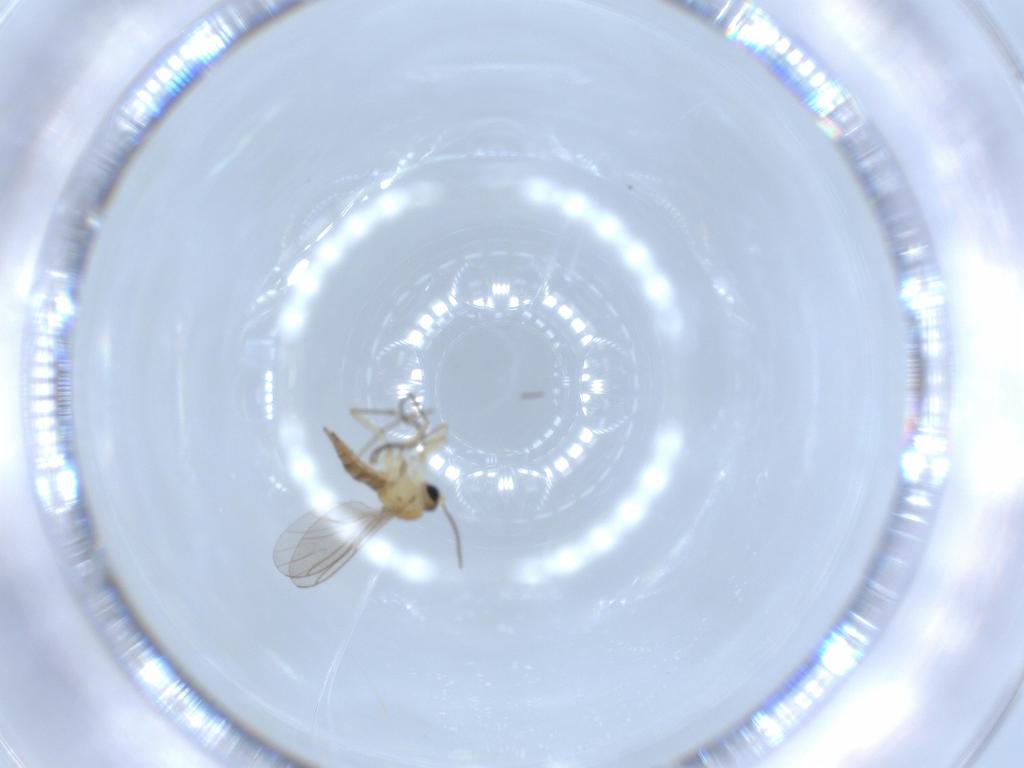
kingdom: Animalia
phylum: Arthropoda
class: Insecta
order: Diptera
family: Sciaridae
